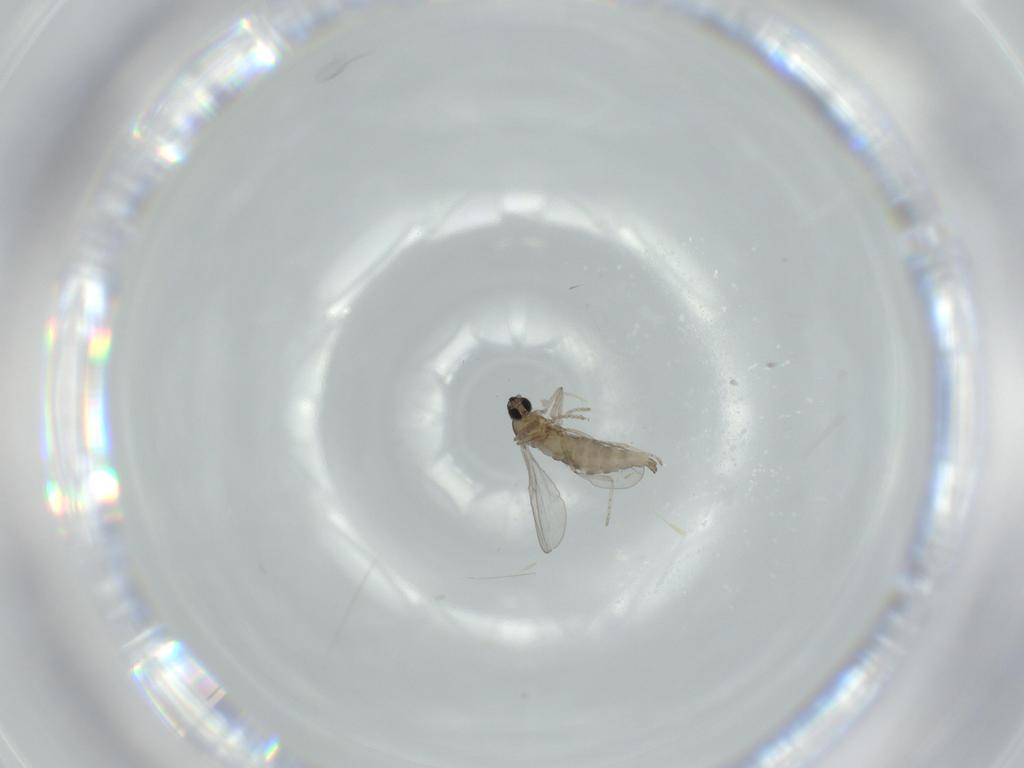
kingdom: Animalia
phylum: Arthropoda
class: Insecta
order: Diptera
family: Cecidomyiidae
